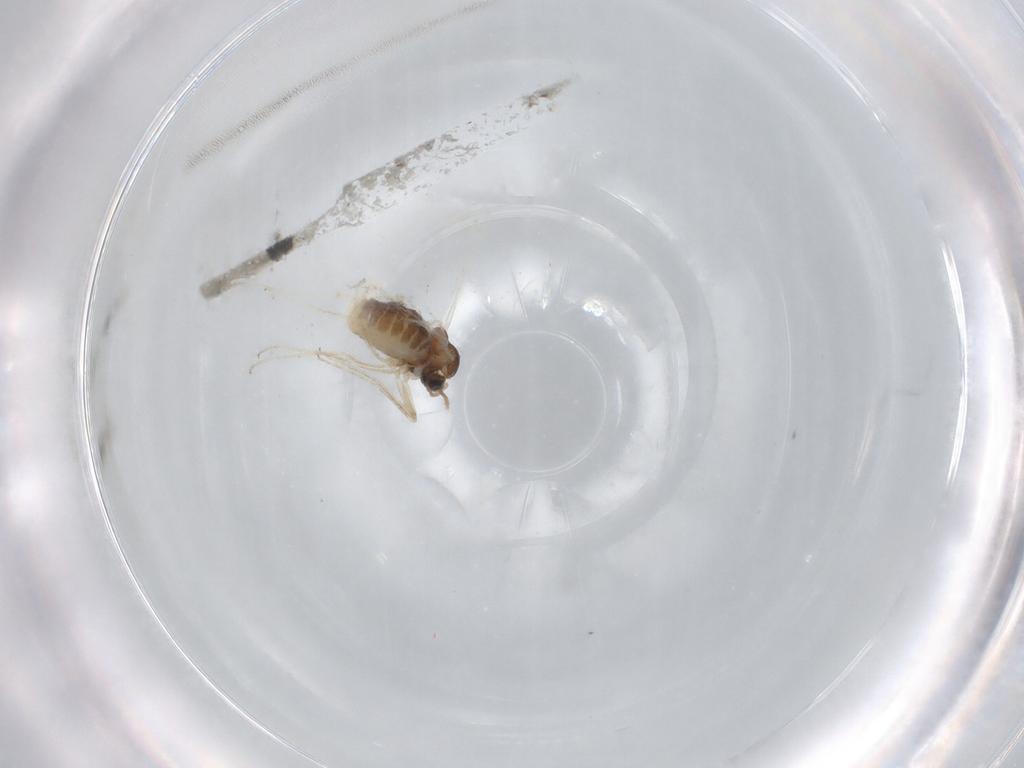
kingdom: Animalia
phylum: Arthropoda
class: Insecta
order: Diptera
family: Cecidomyiidae
